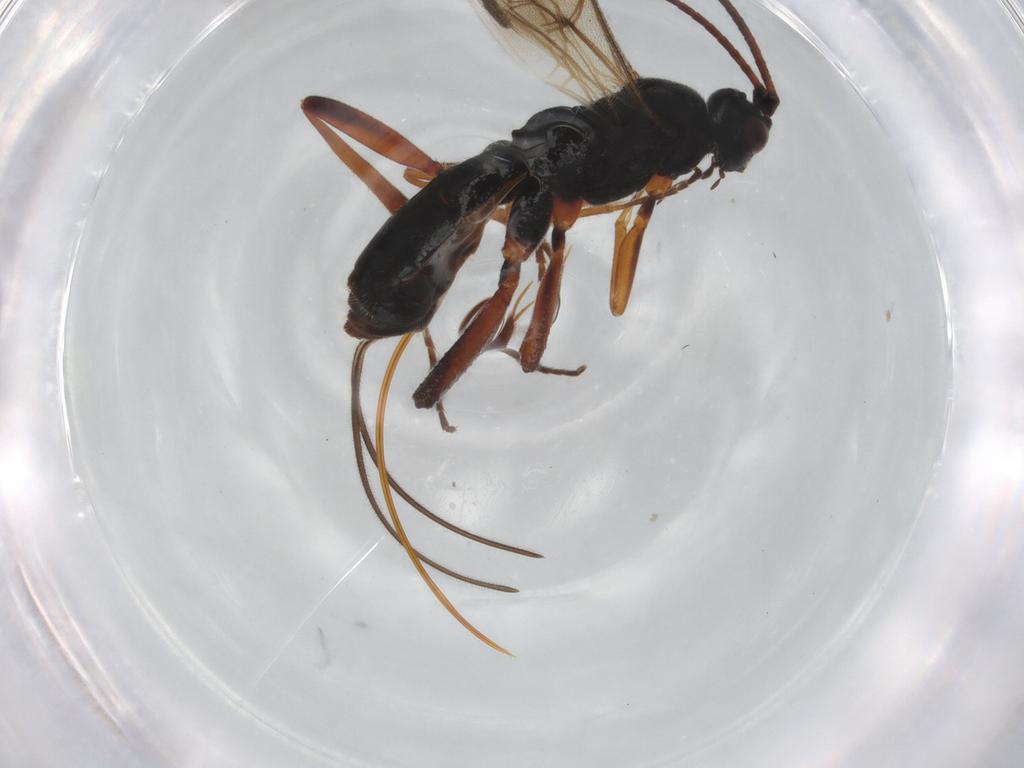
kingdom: Animalia
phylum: Arthropoda
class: Insecta
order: Hymenoptera
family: Braconidae
